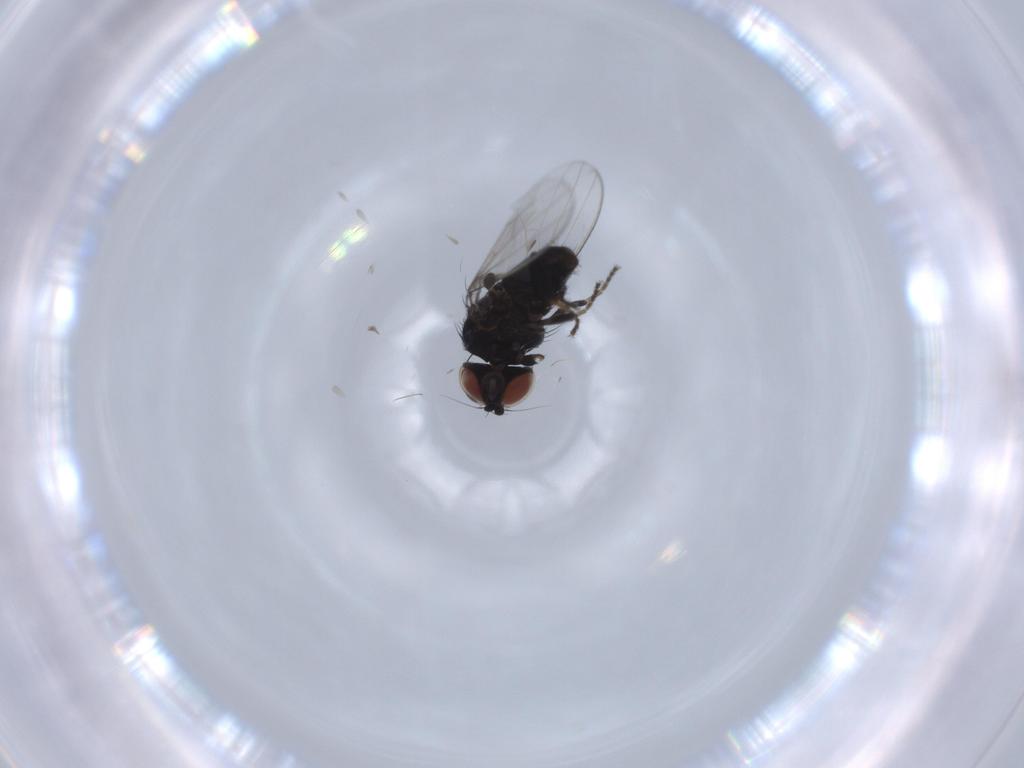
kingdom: Animalia
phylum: Arthropoda
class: Insecta
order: Diptera
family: Milichiidae
